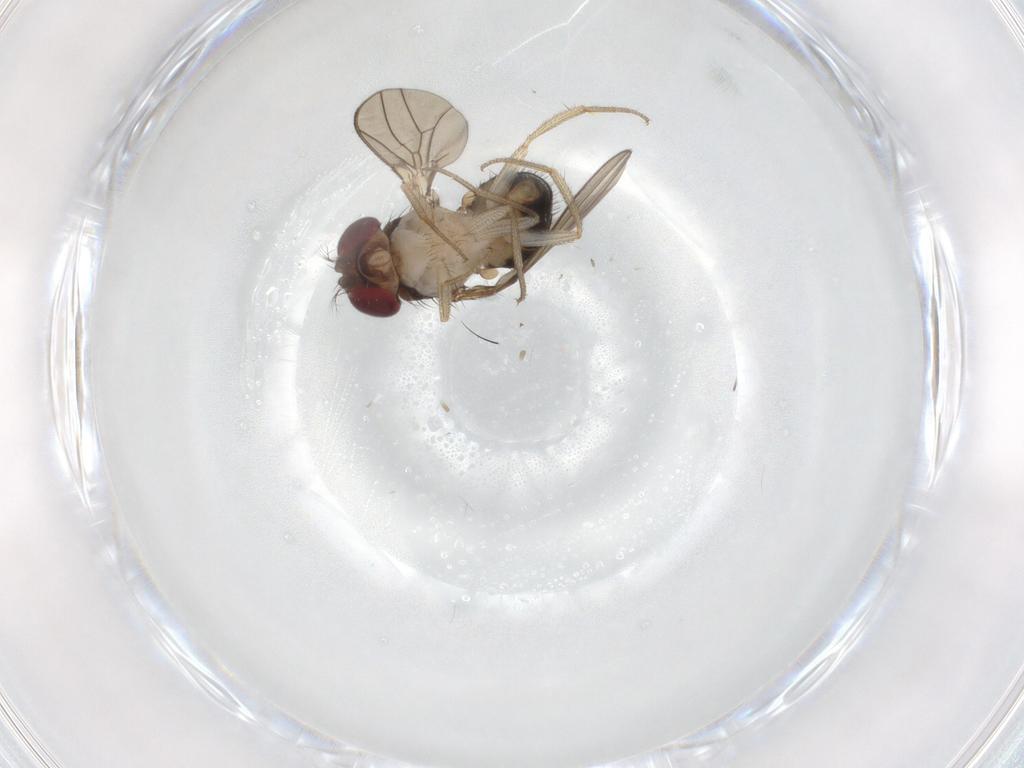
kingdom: Animalia
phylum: Arthropoda
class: Insecta
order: Diptera
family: Drosophilidae
